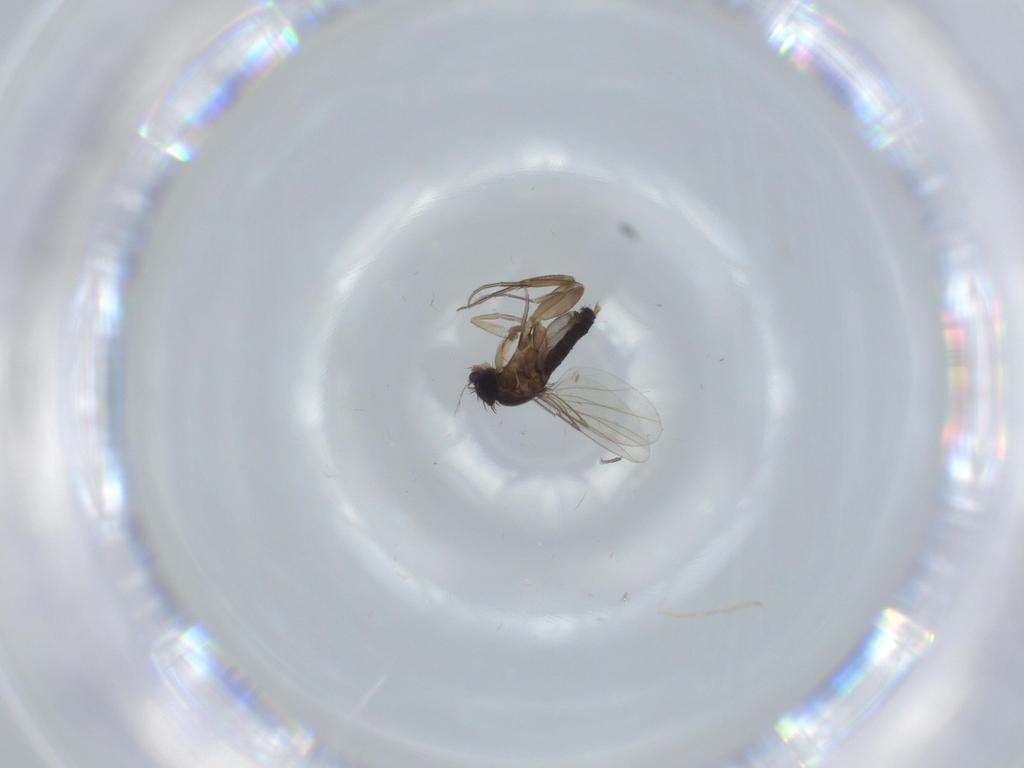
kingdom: Animalia
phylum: Arthropoda
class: Insecta
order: Diptera
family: Phoridae
